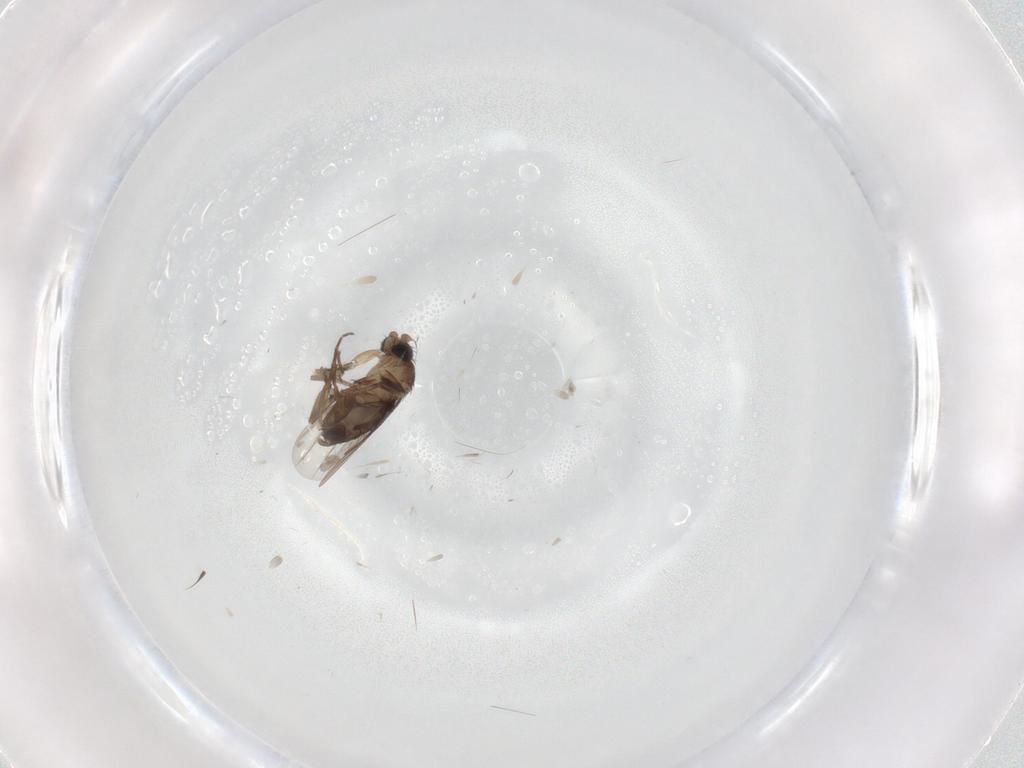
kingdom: Animalia
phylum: Arthropoda
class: Insecta
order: Diptera
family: Phoridae
